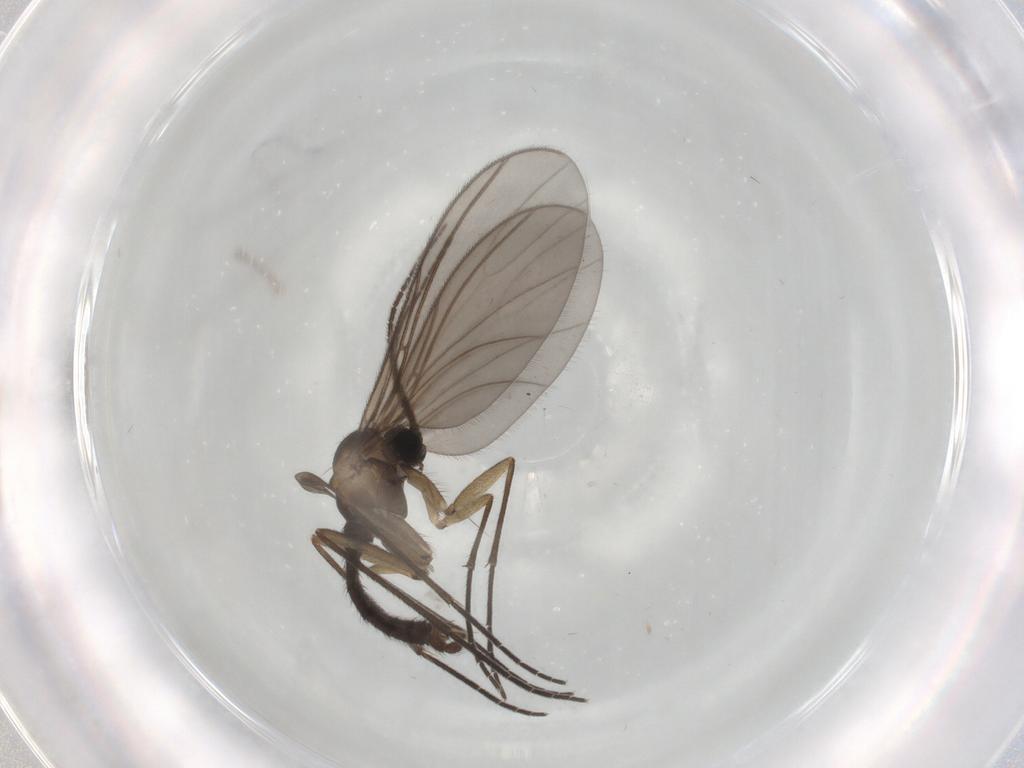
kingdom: Animalia
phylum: Arthropoda
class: Insecta
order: Diptera
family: Sciaridae
